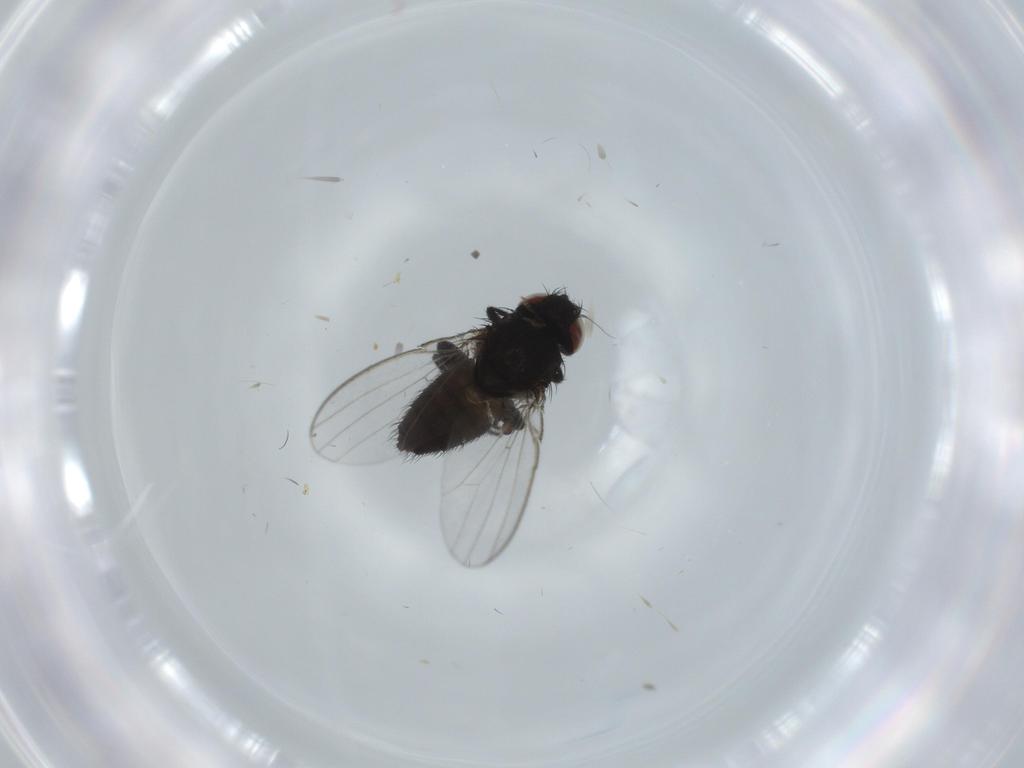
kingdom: Animalia
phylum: Arthropoda
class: Insecta
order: Diptera
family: Milichiidae
